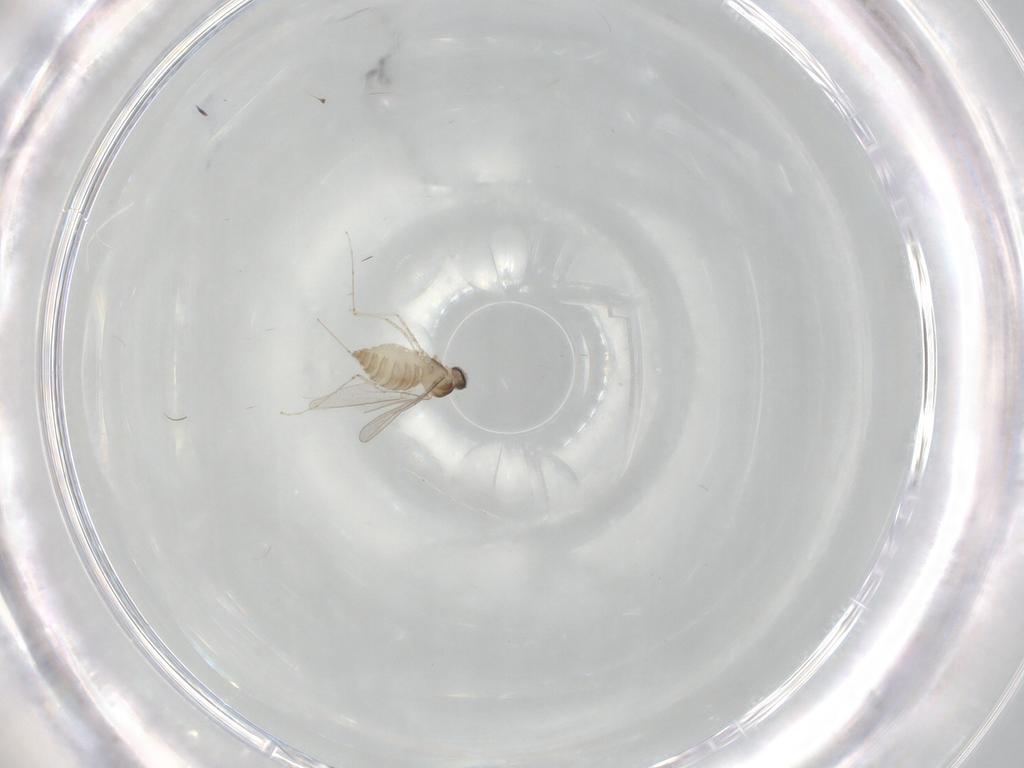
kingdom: Animalia
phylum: Arthropoda
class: Insecta
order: Diptera
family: Cecidomyiidae
